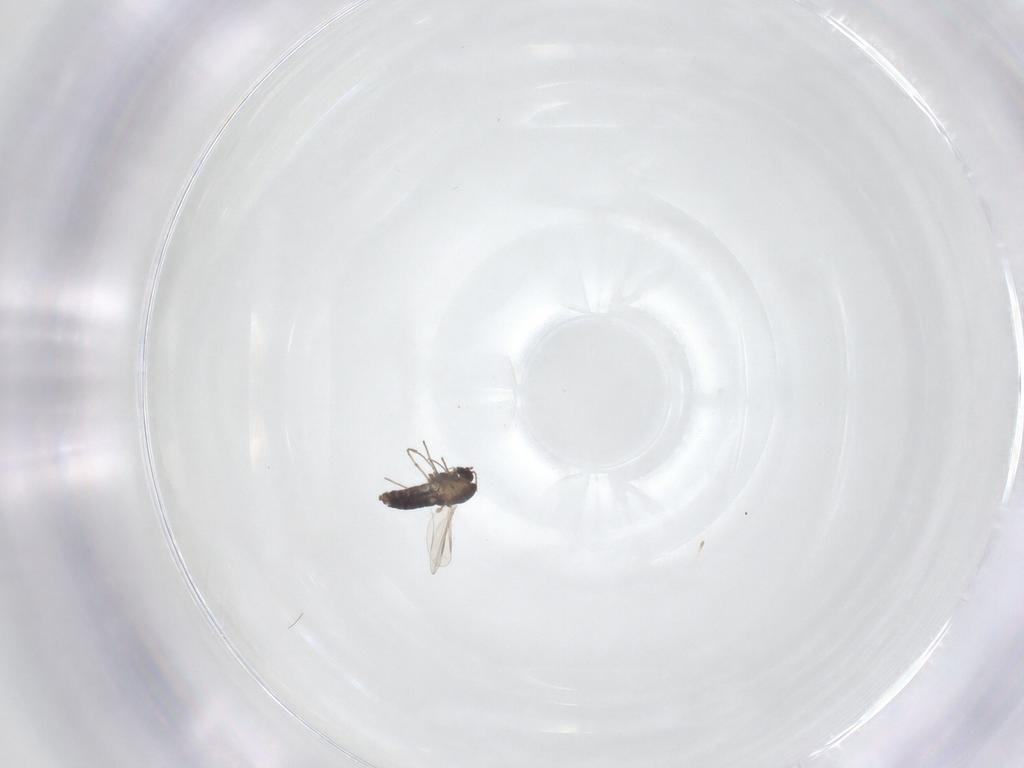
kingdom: Animalia
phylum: Arthropoda
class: Insecta
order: Diptera
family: Chironomidae
